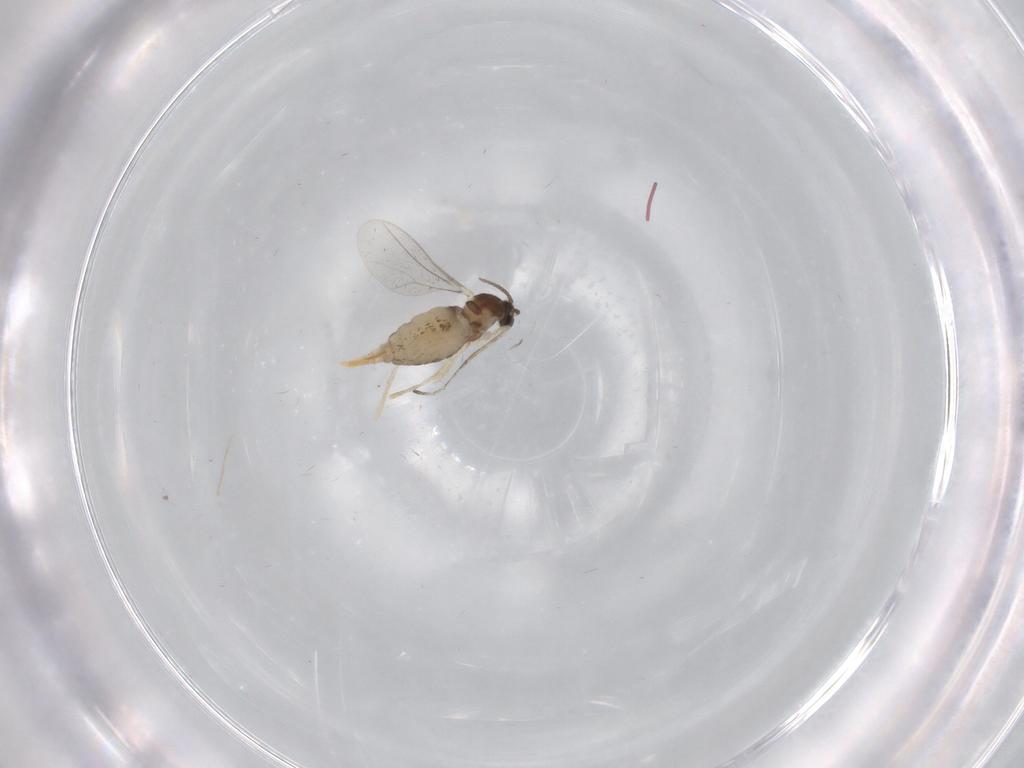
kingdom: Animalia
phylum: Arthropoda
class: Insecta
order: Diptera
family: Cecidomyiidae
